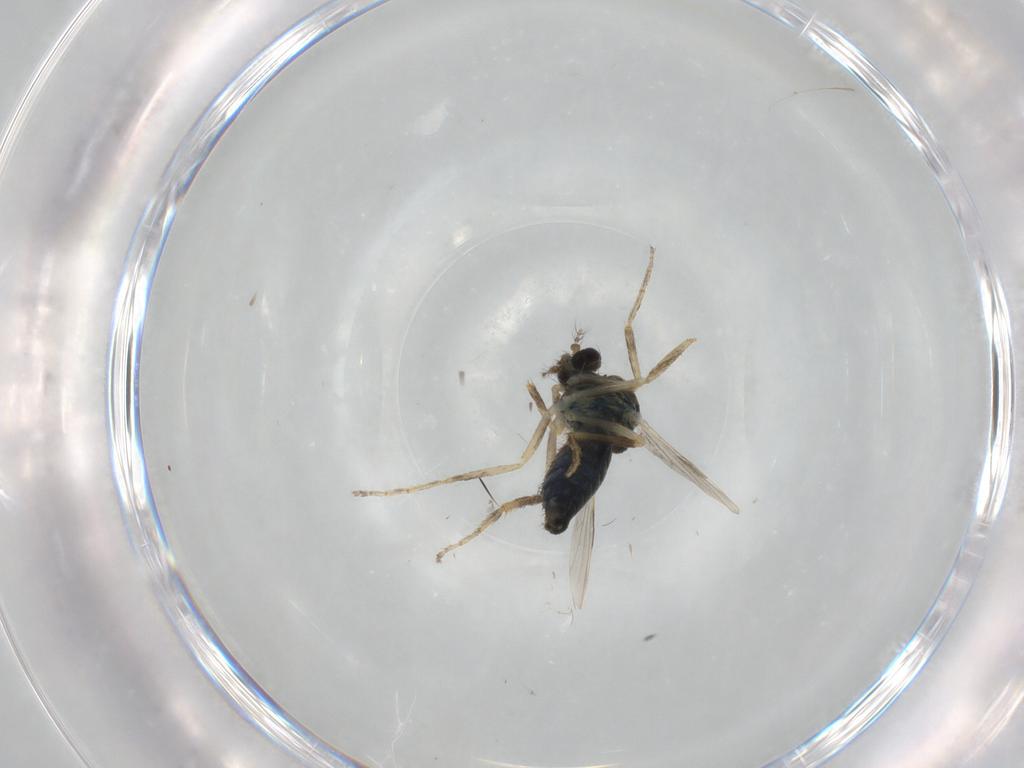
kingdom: Animalia
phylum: Arthropoda
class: Insecta
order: Diptera
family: Ceratopogonidae
